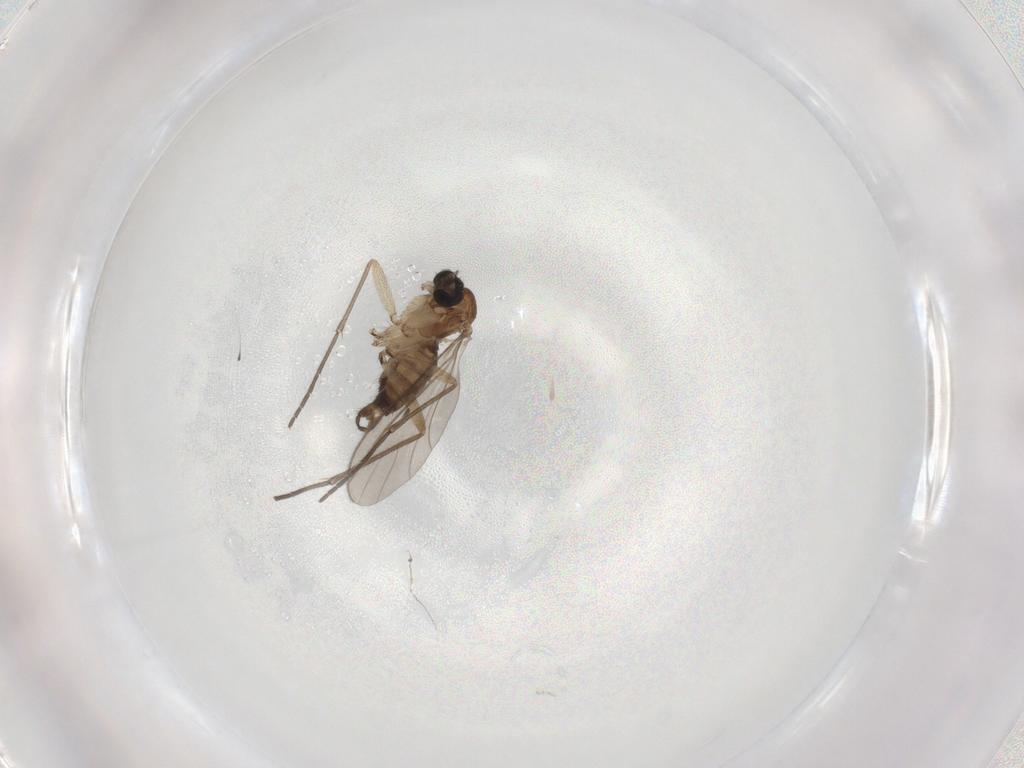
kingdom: Animalia
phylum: Arthropoda
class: Insecta
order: Diptera
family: Sciaridae
